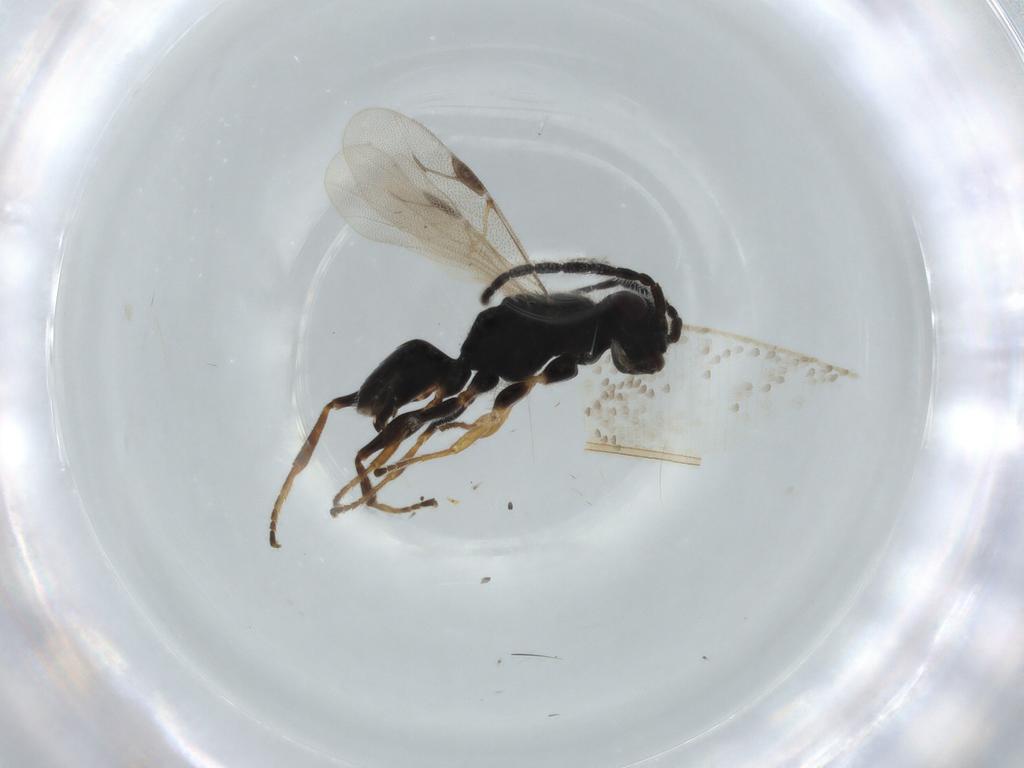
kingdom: Animalia
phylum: Arthropoda
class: Insecta
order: Hymenoptera
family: Dryinidae
